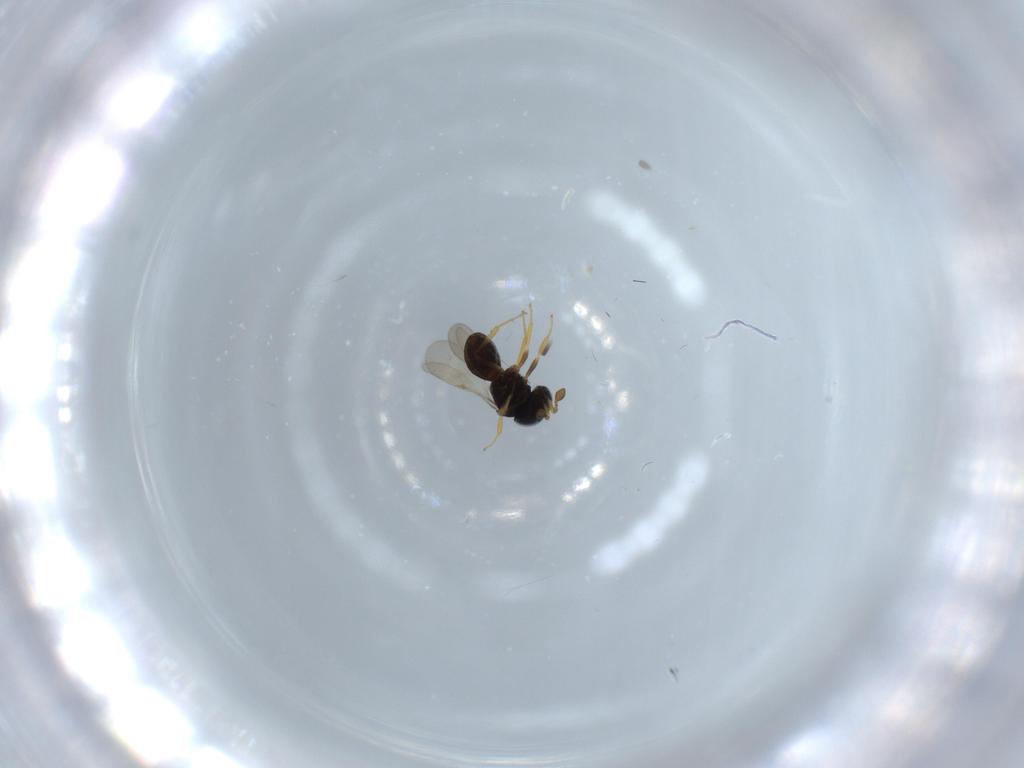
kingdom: Animalia
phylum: Arthropoda
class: Insecta
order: Hymenoptera
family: Scelionidae
